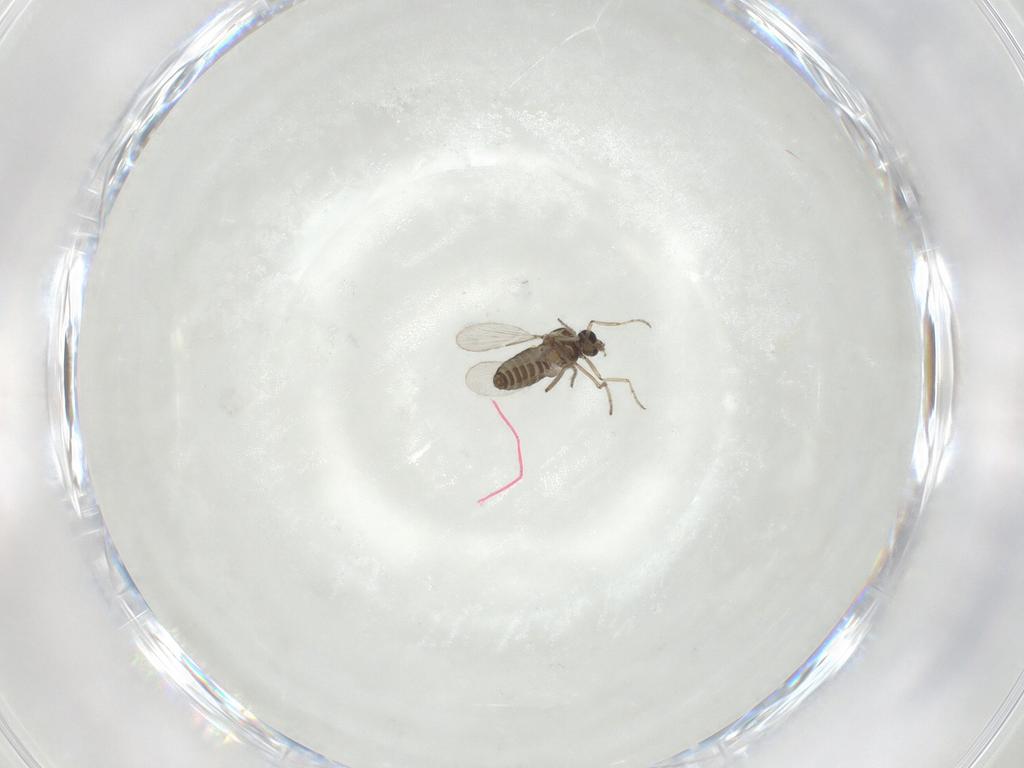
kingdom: Animalia
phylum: Arthropoda
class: Insecta
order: Diptera
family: Ceratopogonidae
